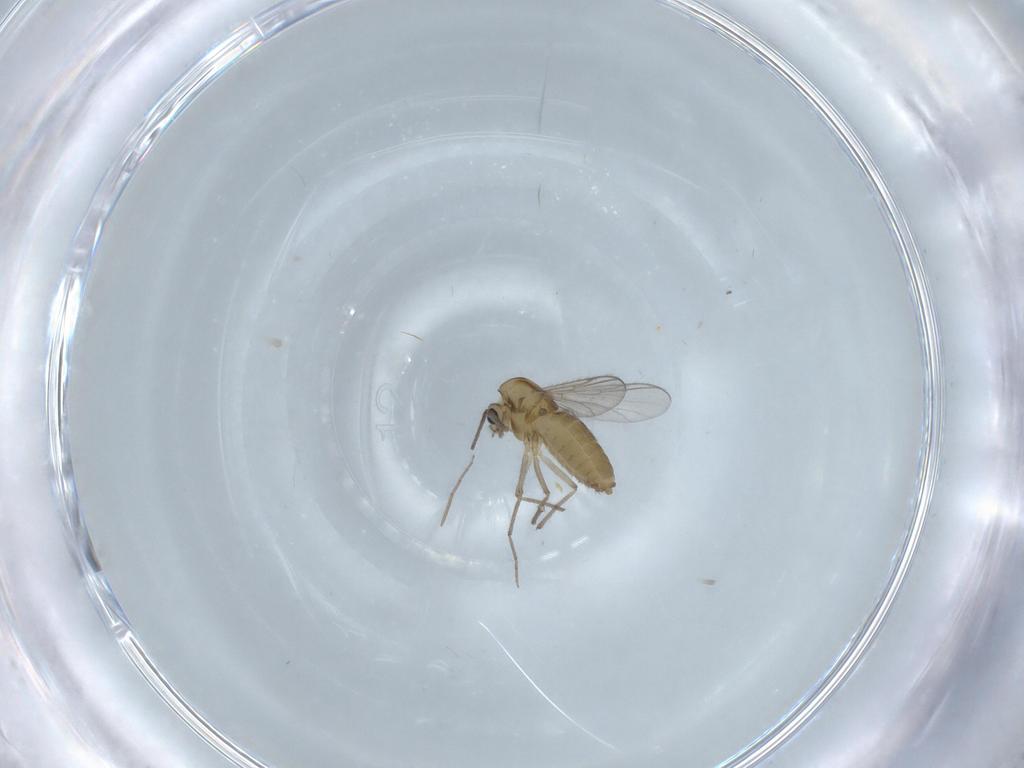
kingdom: Animalia
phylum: Arthropoda
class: Insecta
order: Diptera
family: Chironomidae
